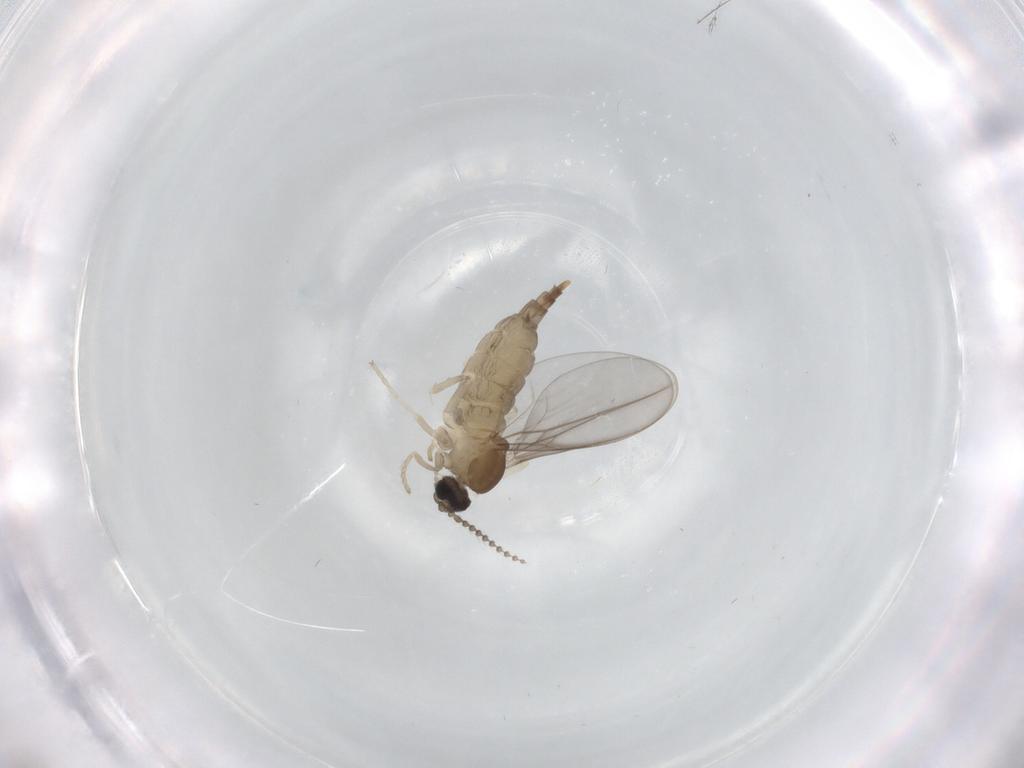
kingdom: Animalia
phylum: Arthropoda
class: Insecta
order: Diptera
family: Cecidomyiidae
